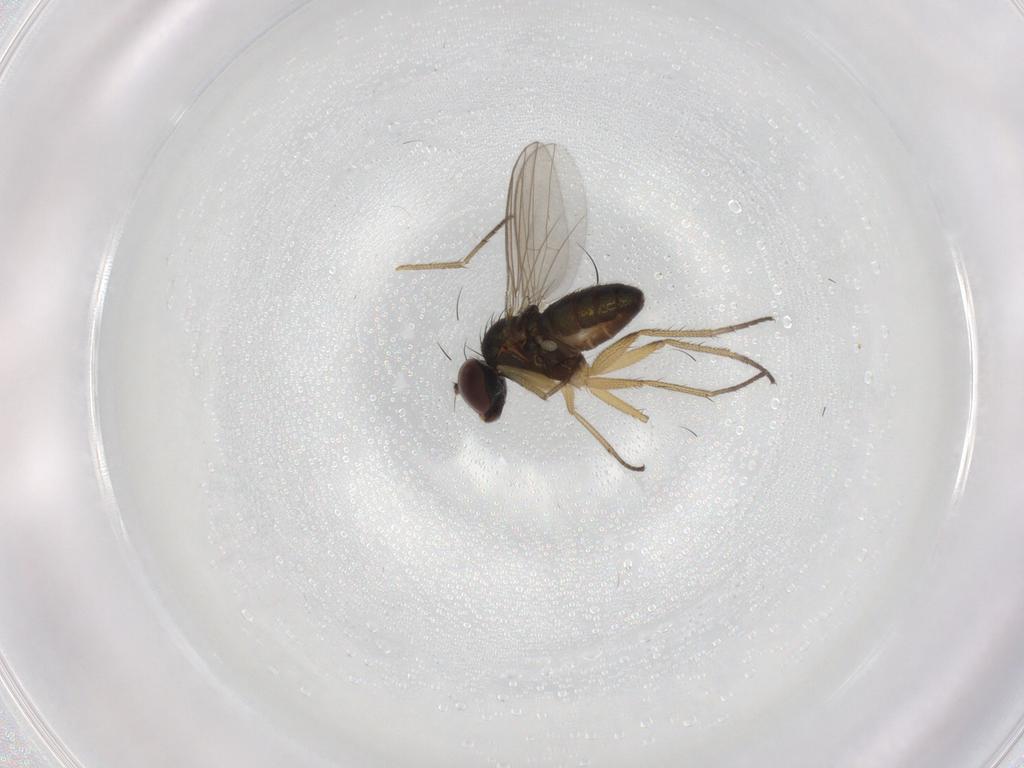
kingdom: Animalia
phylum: Arthropoda
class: Insecta
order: Diptera
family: Dolichopodidae
